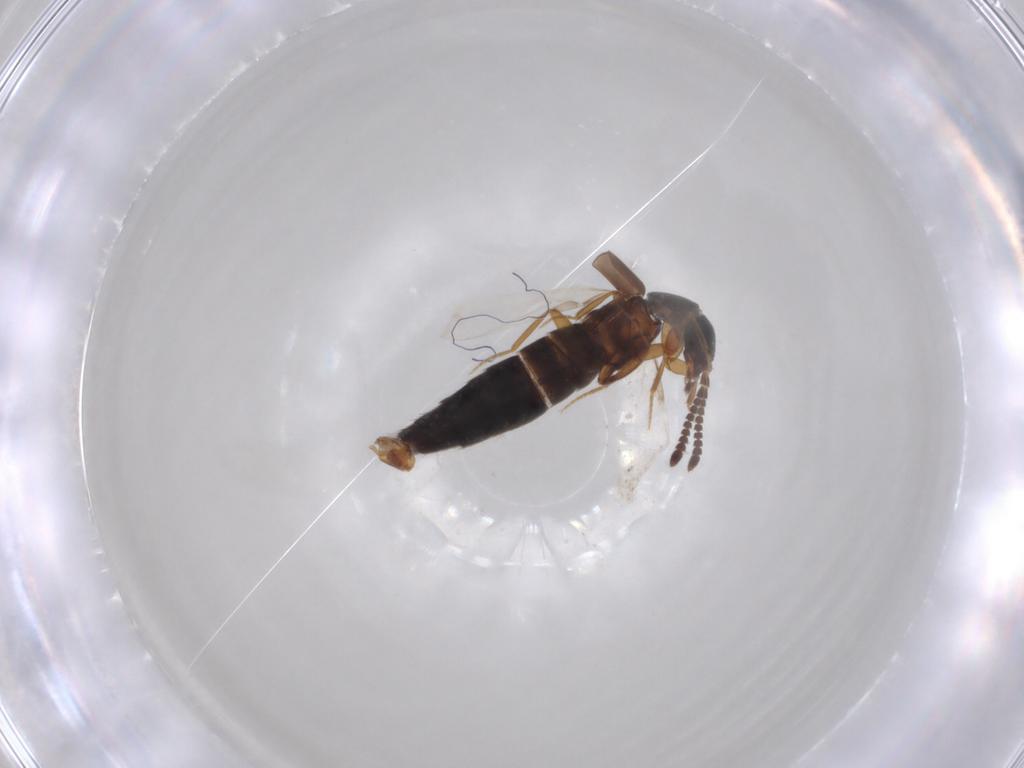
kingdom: Animalia
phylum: Arthropoda
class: Insecta
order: Coleoptera
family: Staphylinidae
